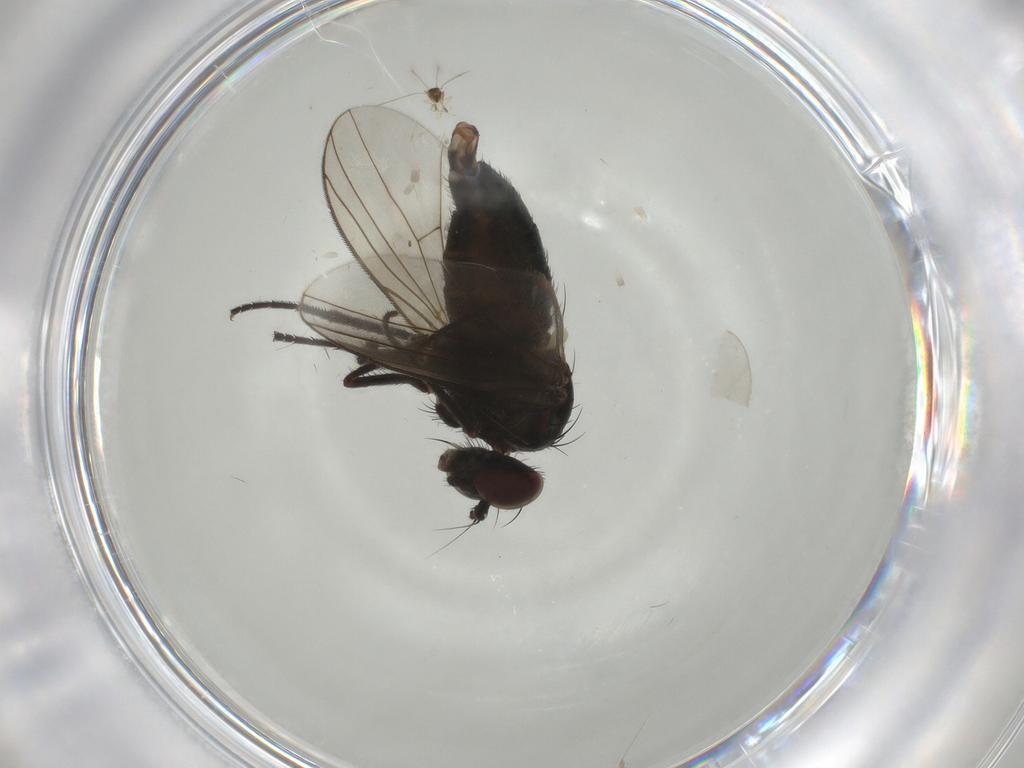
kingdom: Animalia
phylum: Arthropoda
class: Insecta
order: Diptera
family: Dolichopodidae
